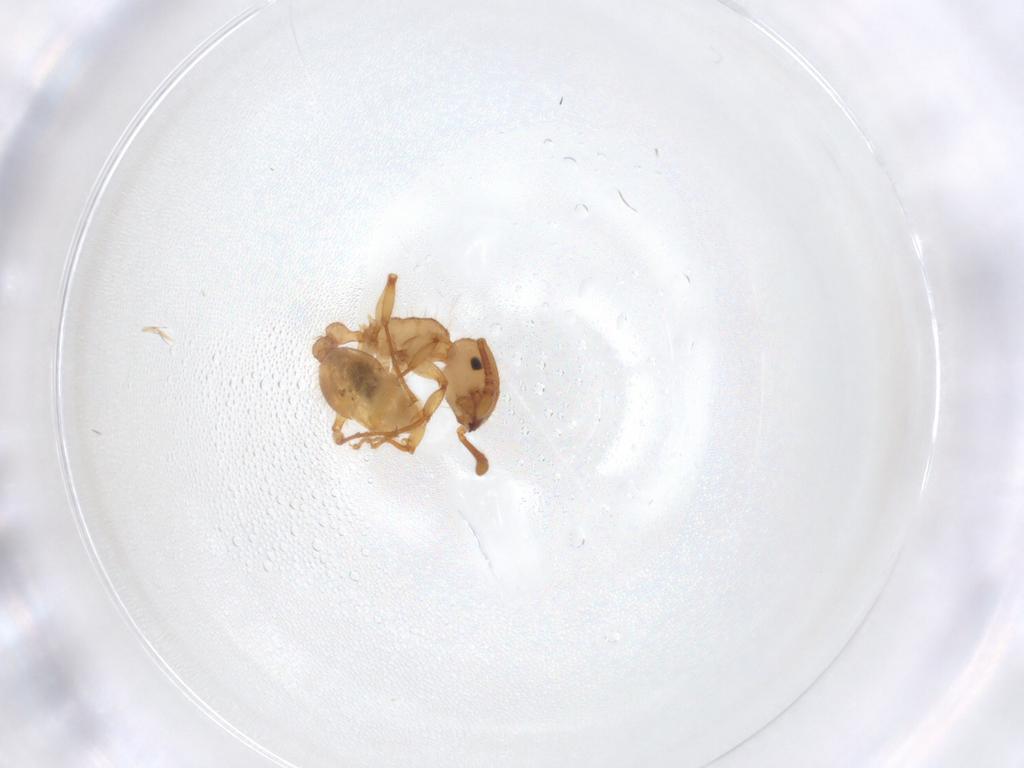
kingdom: Animalia
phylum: Arthropoda
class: Insecta
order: Hymenoptera
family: Formicidae
